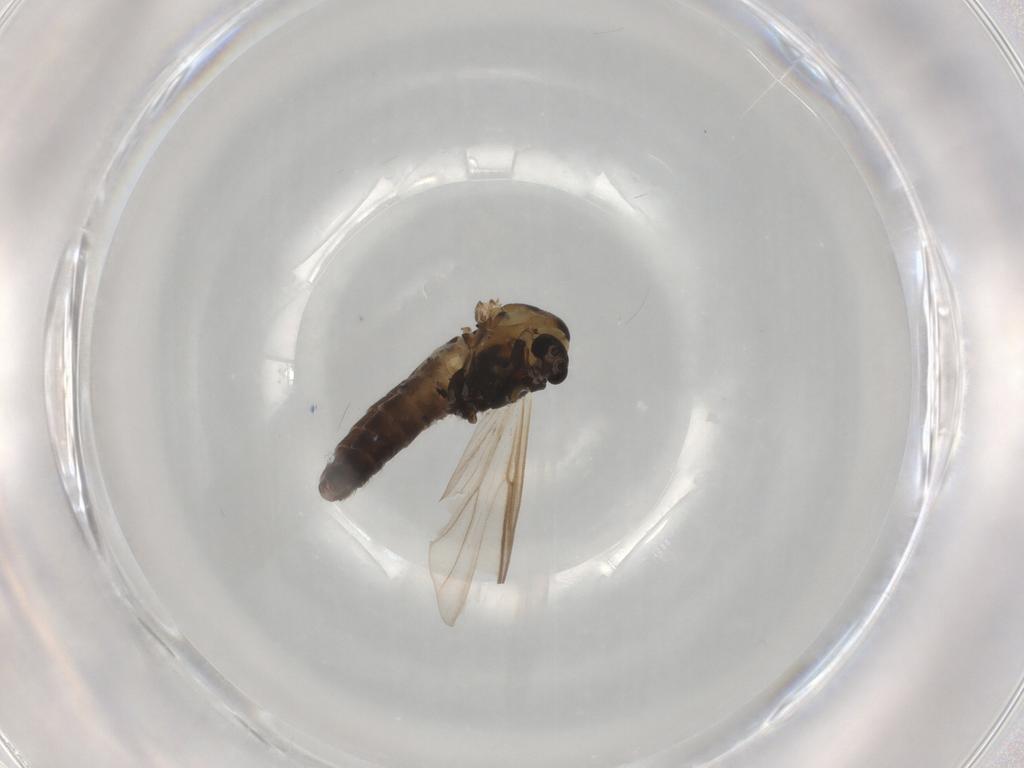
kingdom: Animalia
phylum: Arthropoda
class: Insecta
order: Diptera
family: Chironomidae
